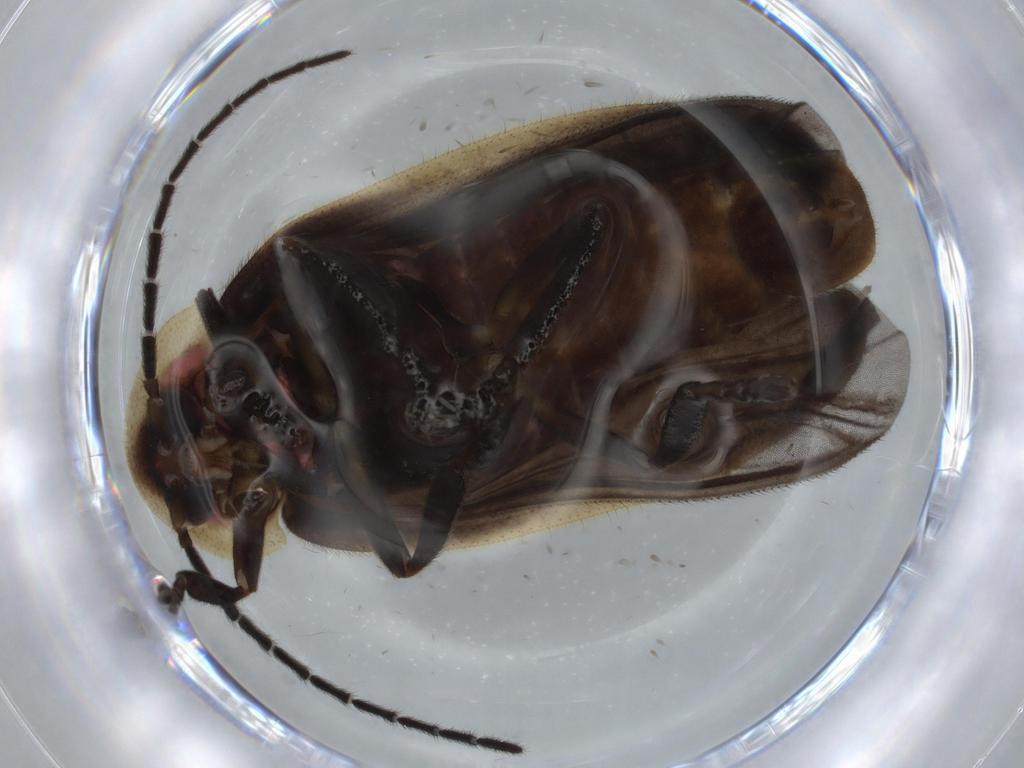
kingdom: Animalia
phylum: Arthropoda
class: Insecta
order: Coleoptera
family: Lampyridae
